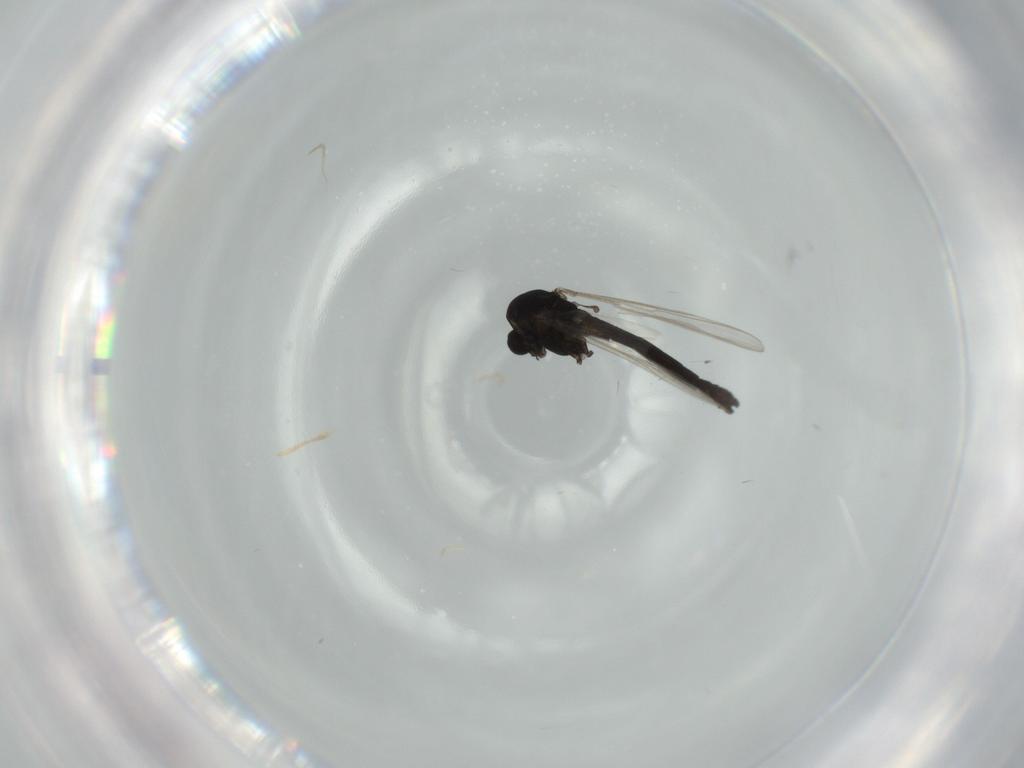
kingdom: Animalia
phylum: Arthropoda
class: Insecta
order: Diptera
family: Chironomidae
